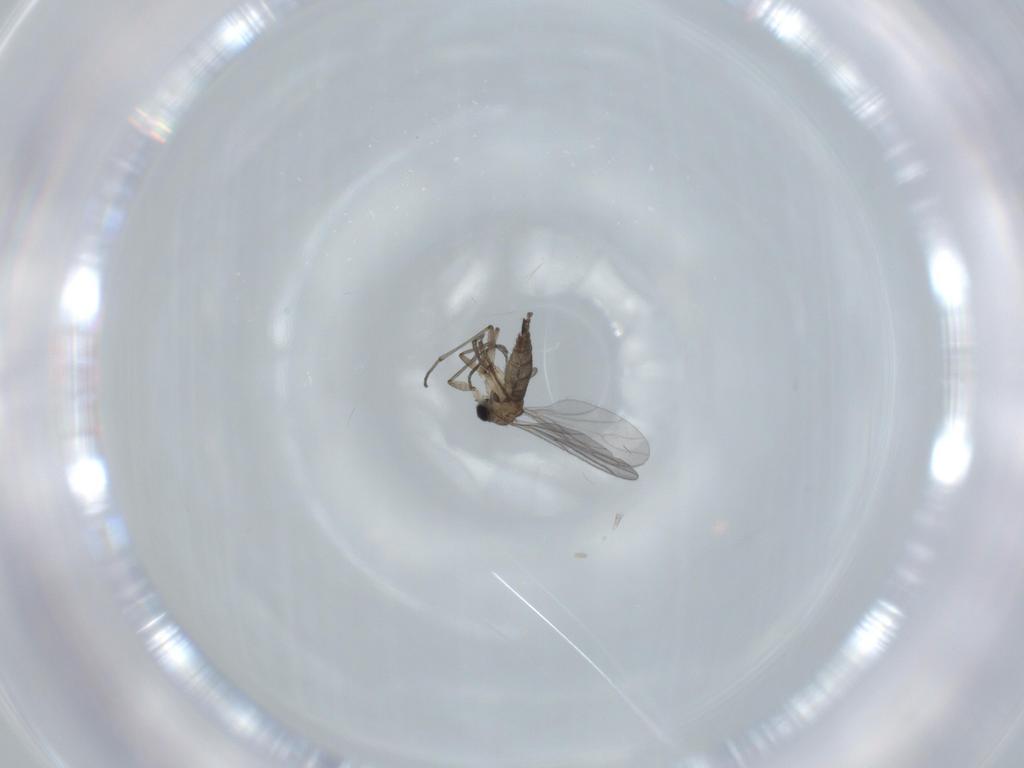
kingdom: Animalia
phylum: Arthropoda
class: Insecta
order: Diptera
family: Sciaridae
